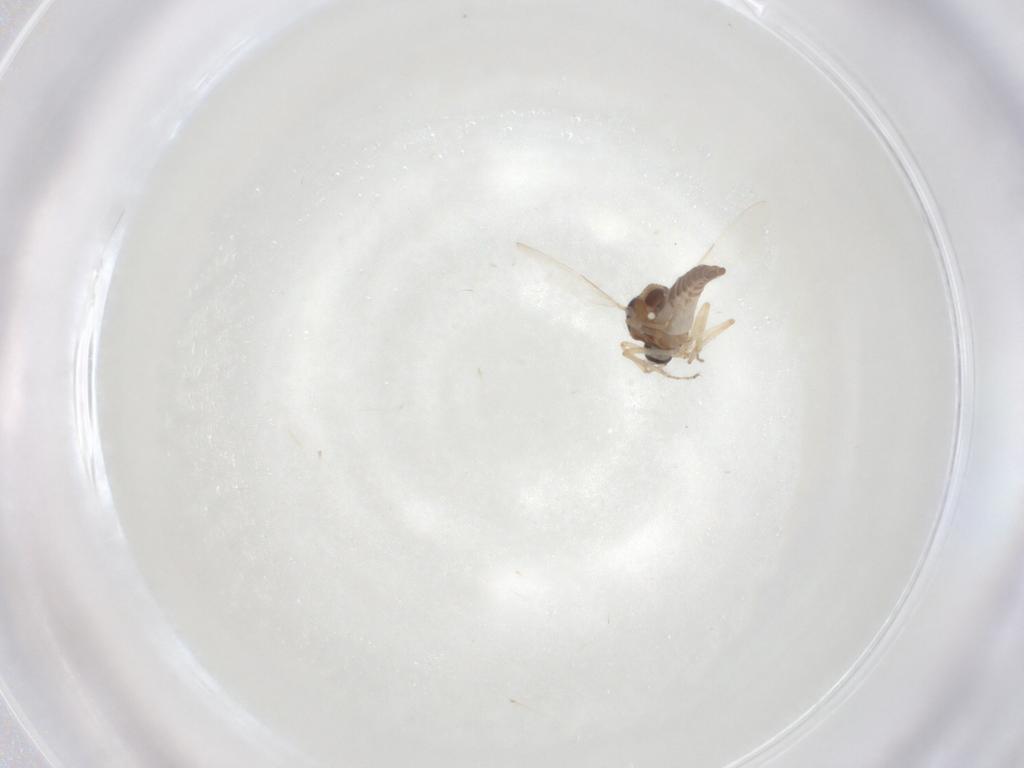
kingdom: Animalia
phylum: Arthropoda
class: Insecta
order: Diptera
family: Ceratopogonidae
